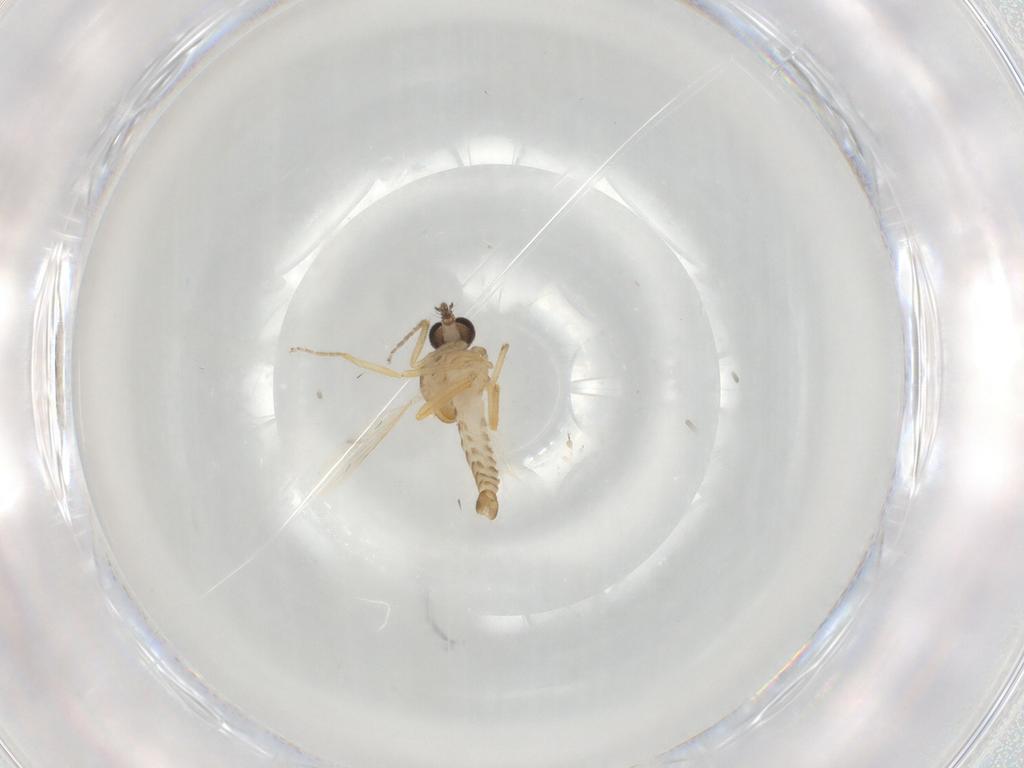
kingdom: Animalia
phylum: Arthropoda
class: Insecta
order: Diptera
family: Ceratopogonidae
